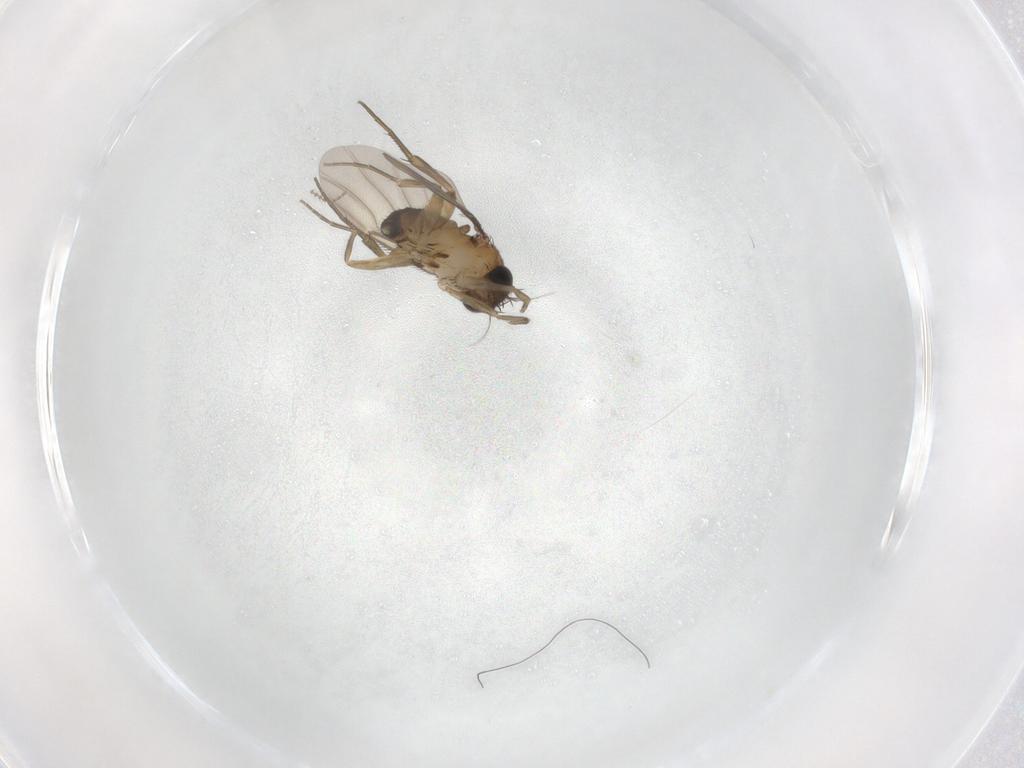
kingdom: Animalia
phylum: Arthropoda
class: Insecta
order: Diptera
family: Phoridae
